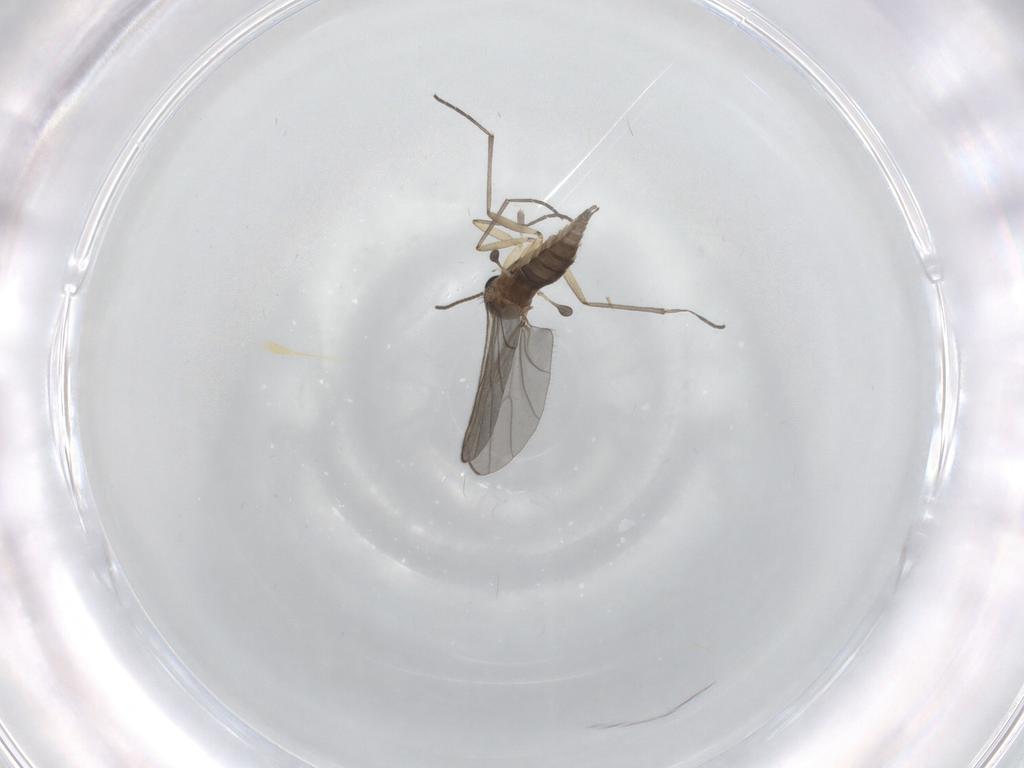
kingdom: Animalia
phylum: Arthropoda
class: Insecta
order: Diptera
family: Sciaridae
